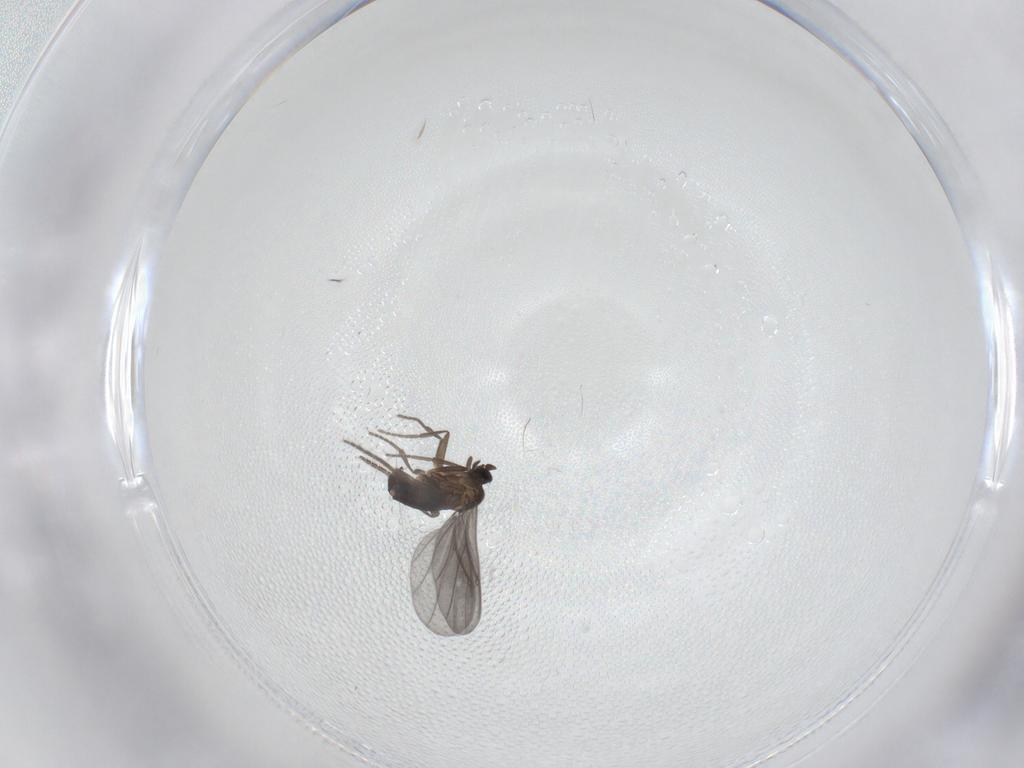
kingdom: Animalia
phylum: Arthropoda
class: Insecta
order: Diptera
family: Phoridae
